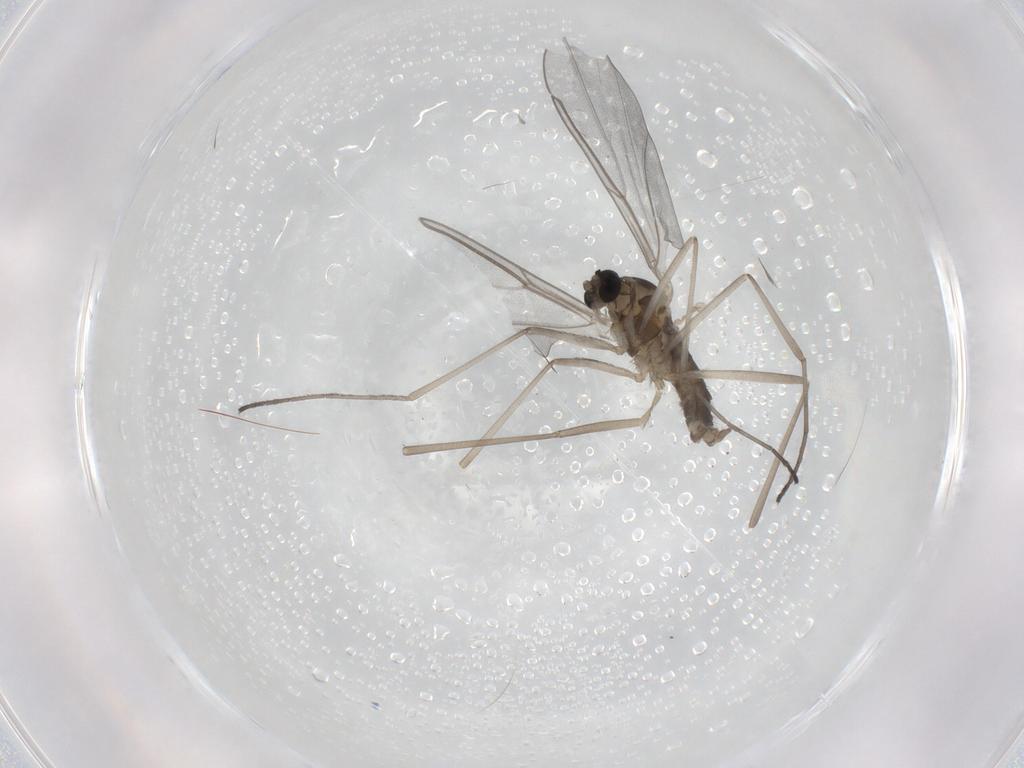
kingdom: Animalia
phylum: Arthropoda
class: Insecta
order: Diptera
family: Cecidomyiidae
